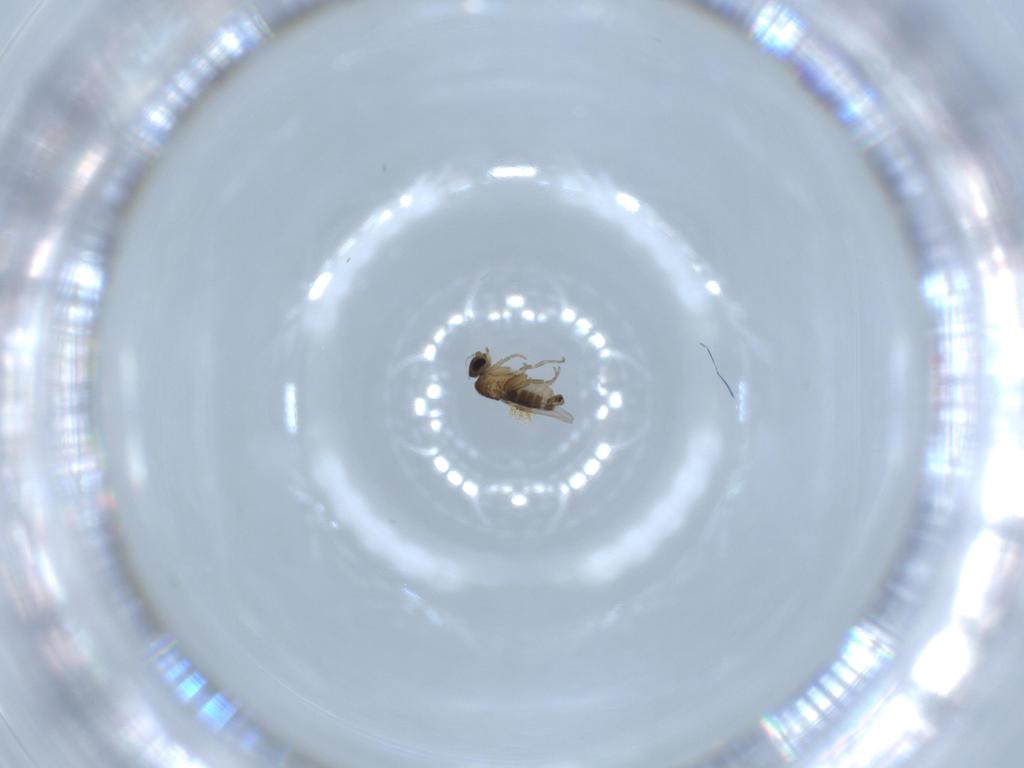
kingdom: Animalia
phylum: Arthropoda
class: Insecta
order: Diptera
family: Phoridae
